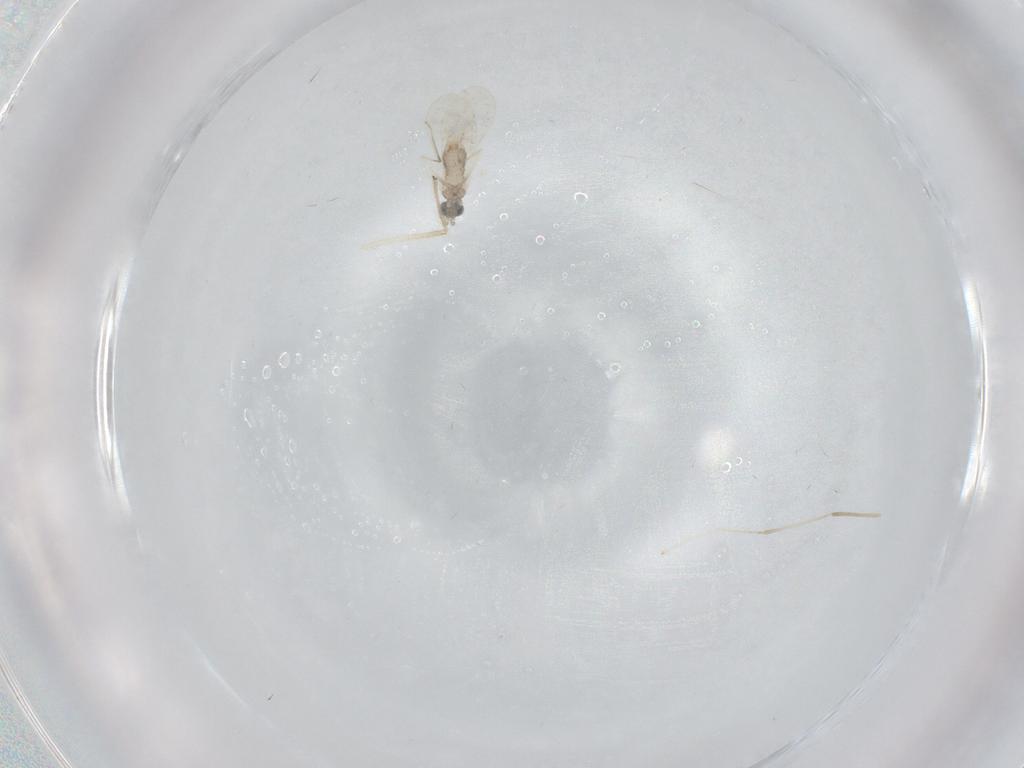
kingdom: Animalia
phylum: Arthropoda
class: Insecta
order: Diptera
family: Cecidomyiidae
